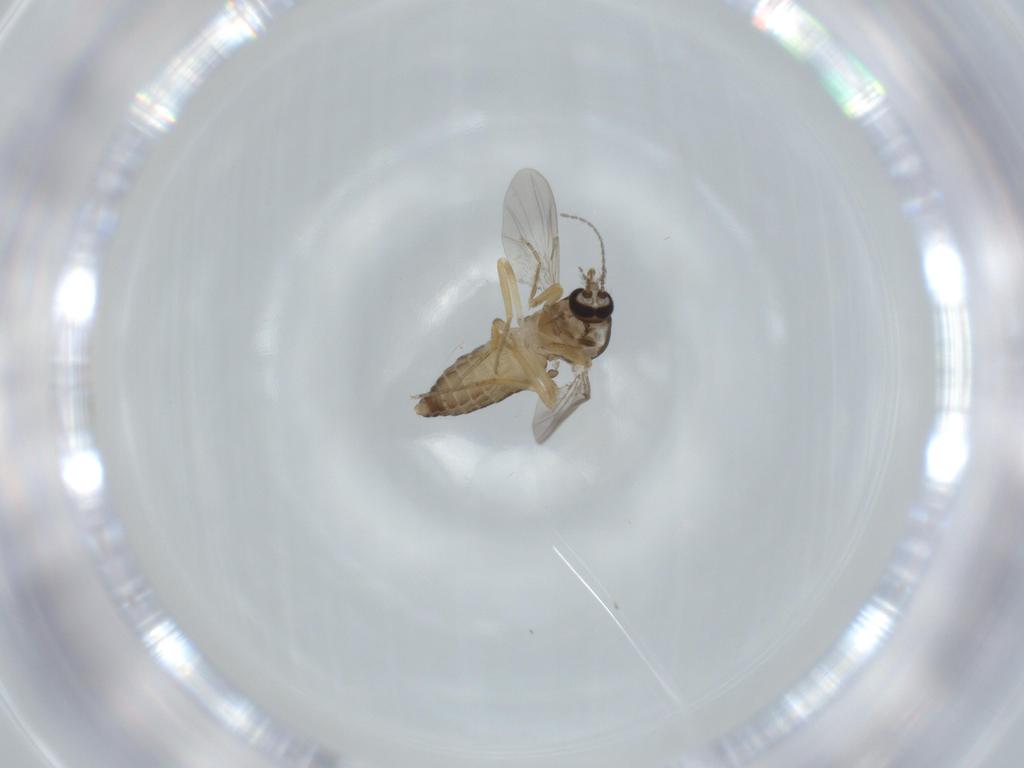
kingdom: Animalia
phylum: Arthropoda
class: Insecta
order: Diptera
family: Ceratopogonidae
